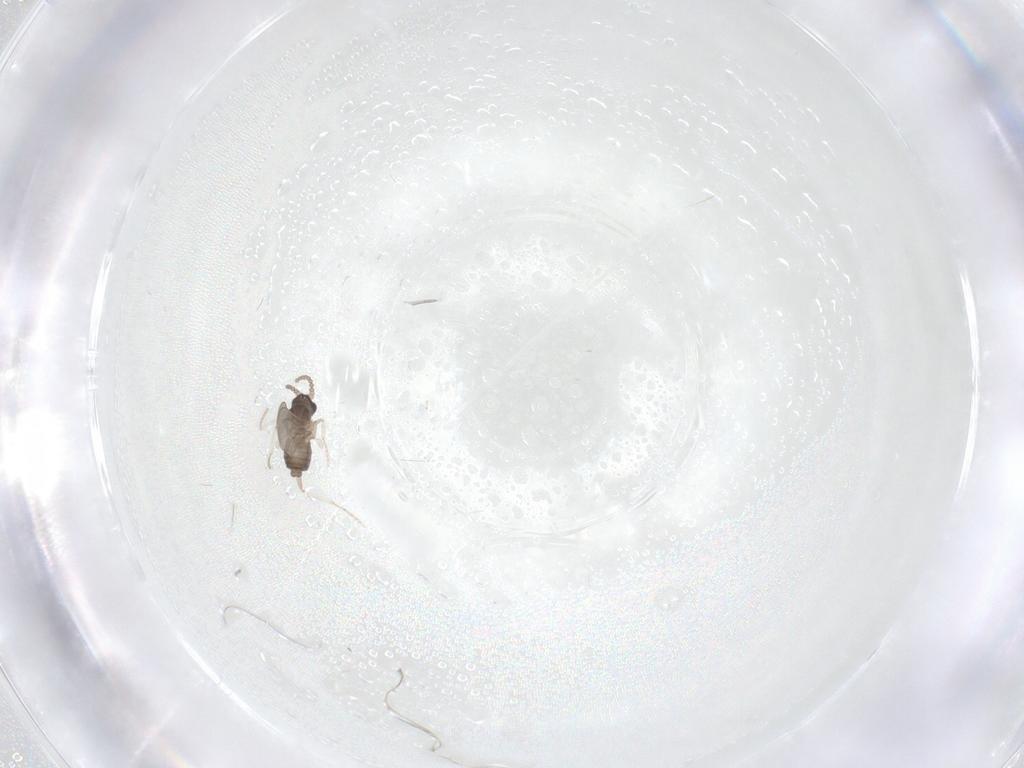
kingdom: Animalia
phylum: Arthropoda
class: Insecta
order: Diptera
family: Cecidomyiidae
